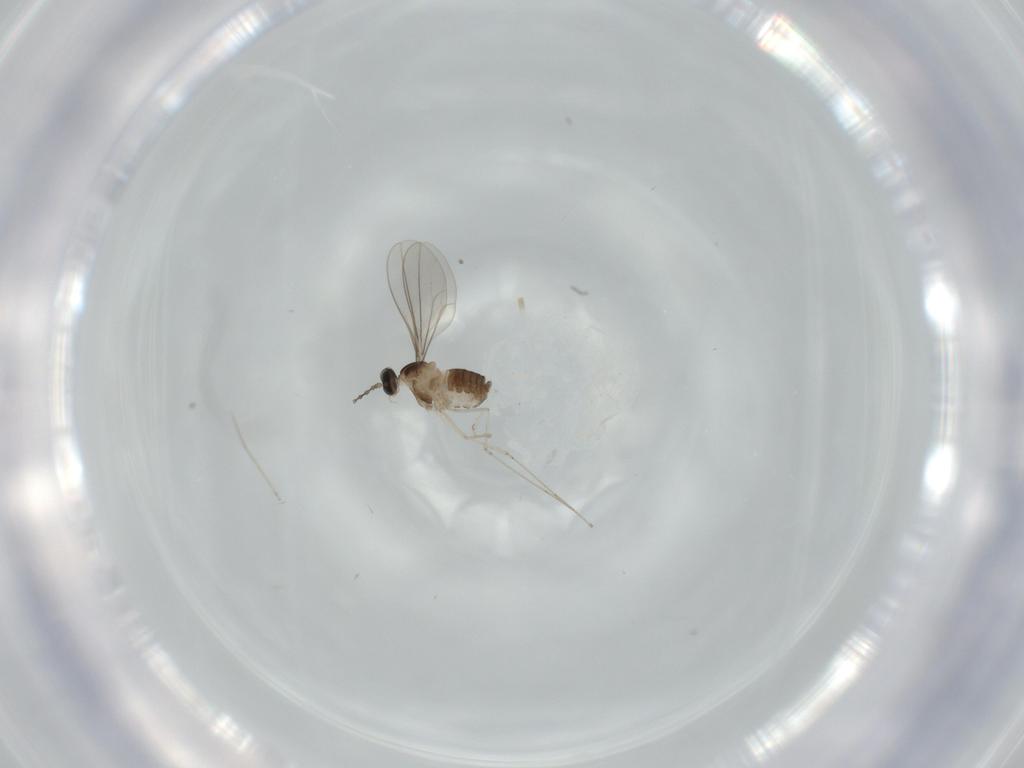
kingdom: Animalia
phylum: Arthropoda
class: Insecta
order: Diptera
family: Cecidomyiidae
